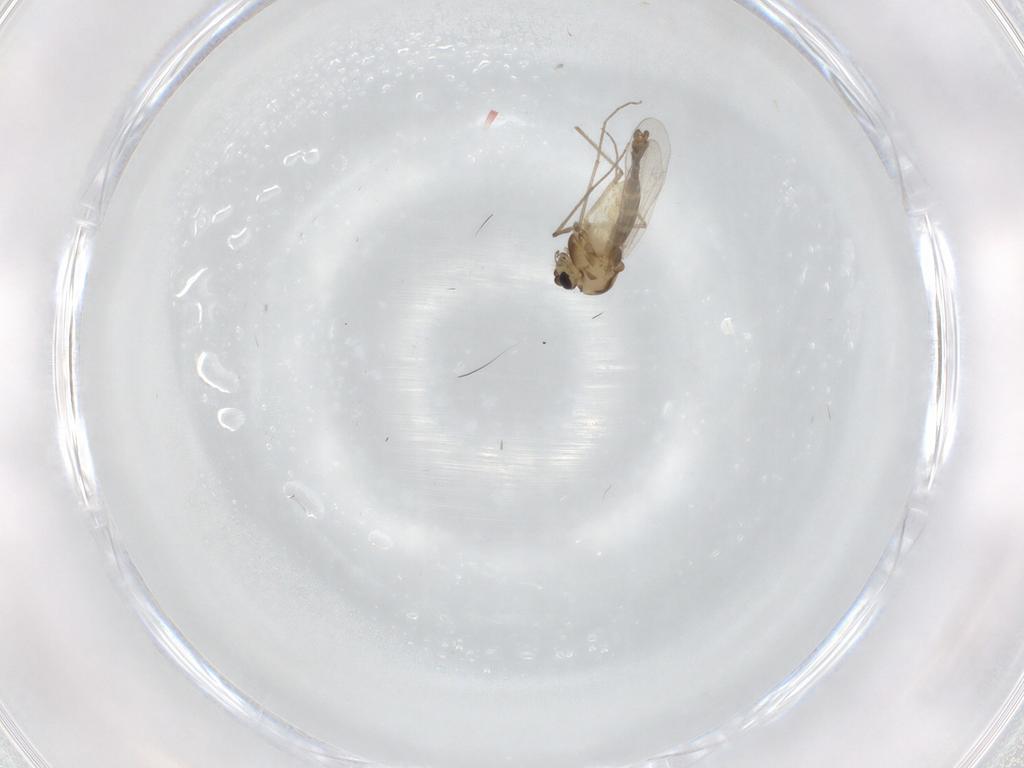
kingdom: Animalia
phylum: Arthropoda
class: Insecta
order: Diptera
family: Chironomidae
